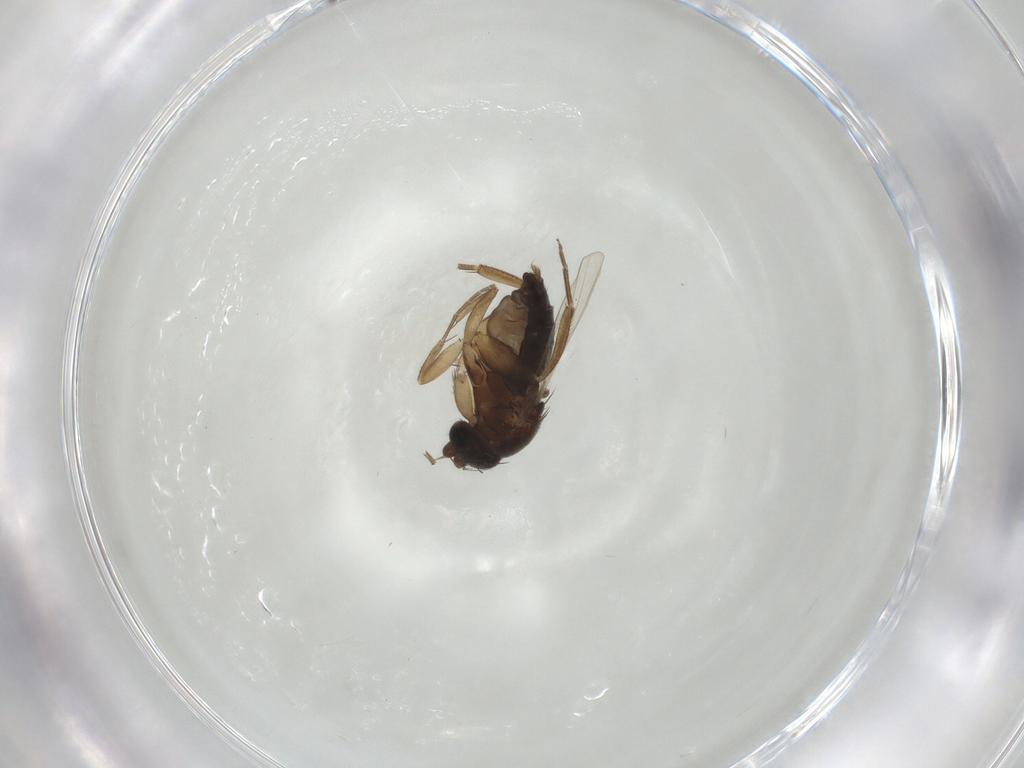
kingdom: Animalia
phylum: Arthropoda
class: Insecta
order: Diptera
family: Phoridae
